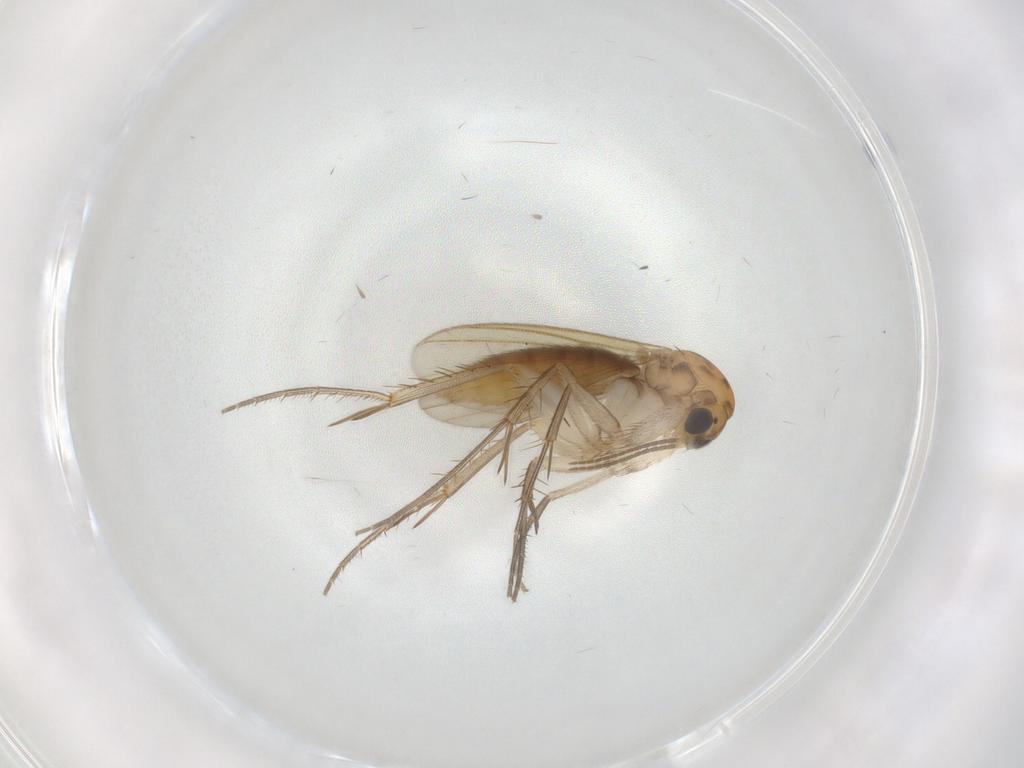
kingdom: Animalia
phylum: Arthropoda
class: Insecta
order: Diptera
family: Mycetophilidae
